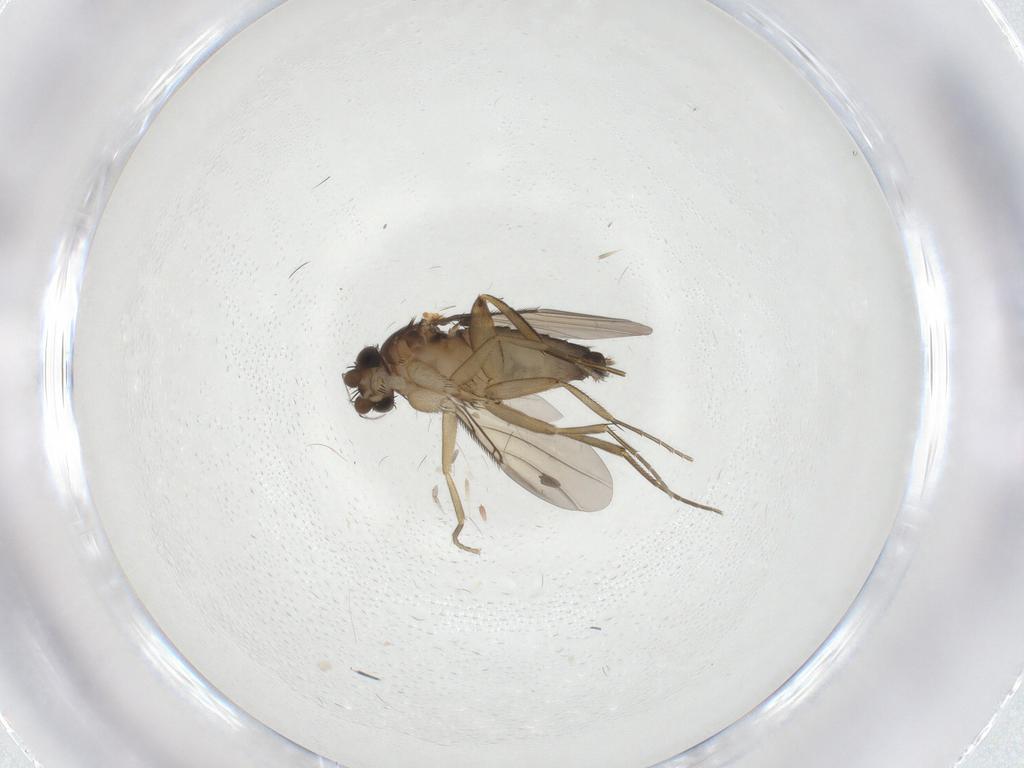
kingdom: Animalia
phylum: Arthropoda
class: Insecta
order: Diptera
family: Phoridae
